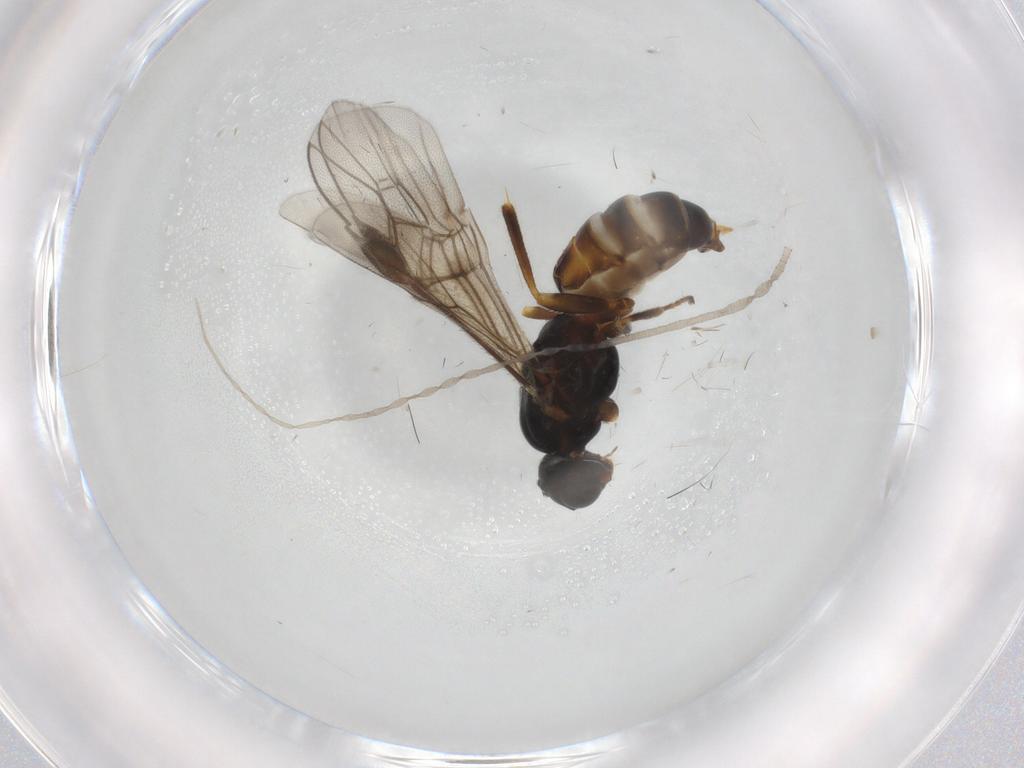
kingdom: Animalia
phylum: Arthropoda
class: Insecta
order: Hymenoptera
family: Braconidae
